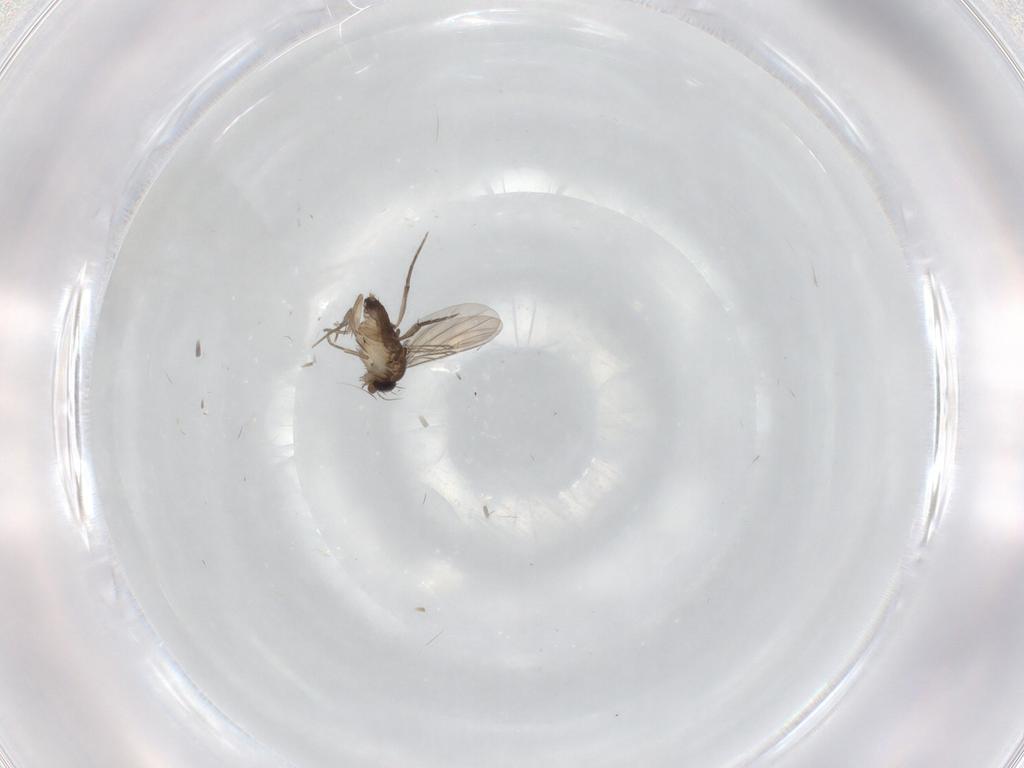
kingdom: Animalia
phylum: Arthropoda
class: Insecta
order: Diptera
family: Phoridae
